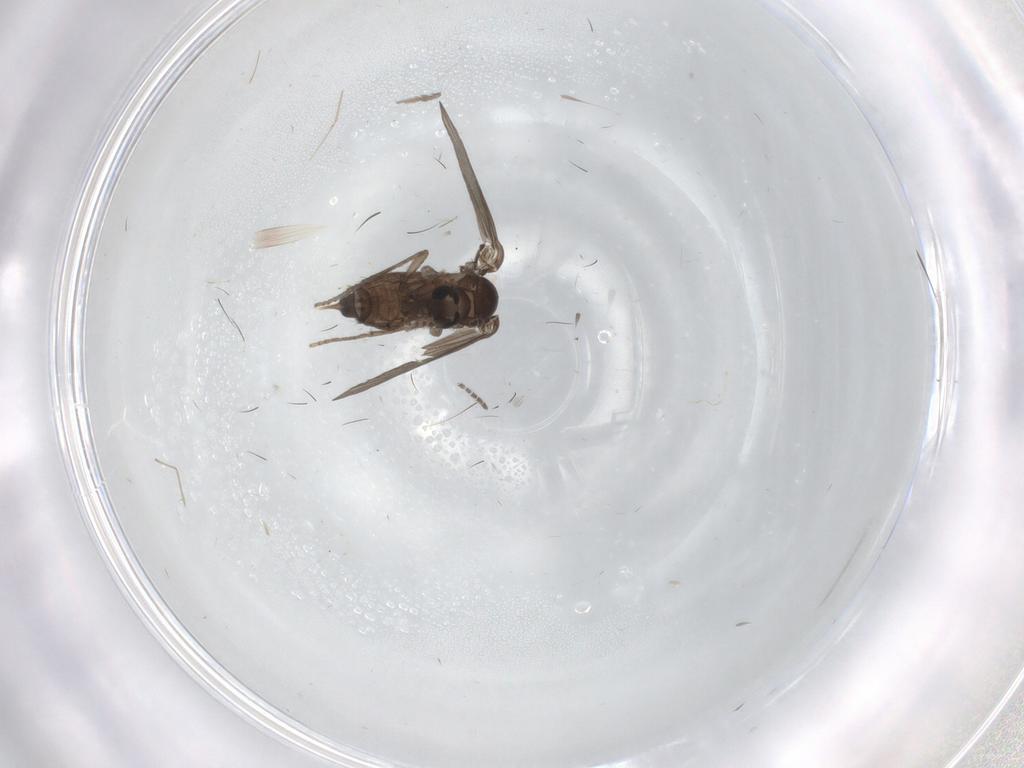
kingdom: Animalia
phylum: Arthropoda
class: Insecta
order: Diptera
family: Psychodidae
